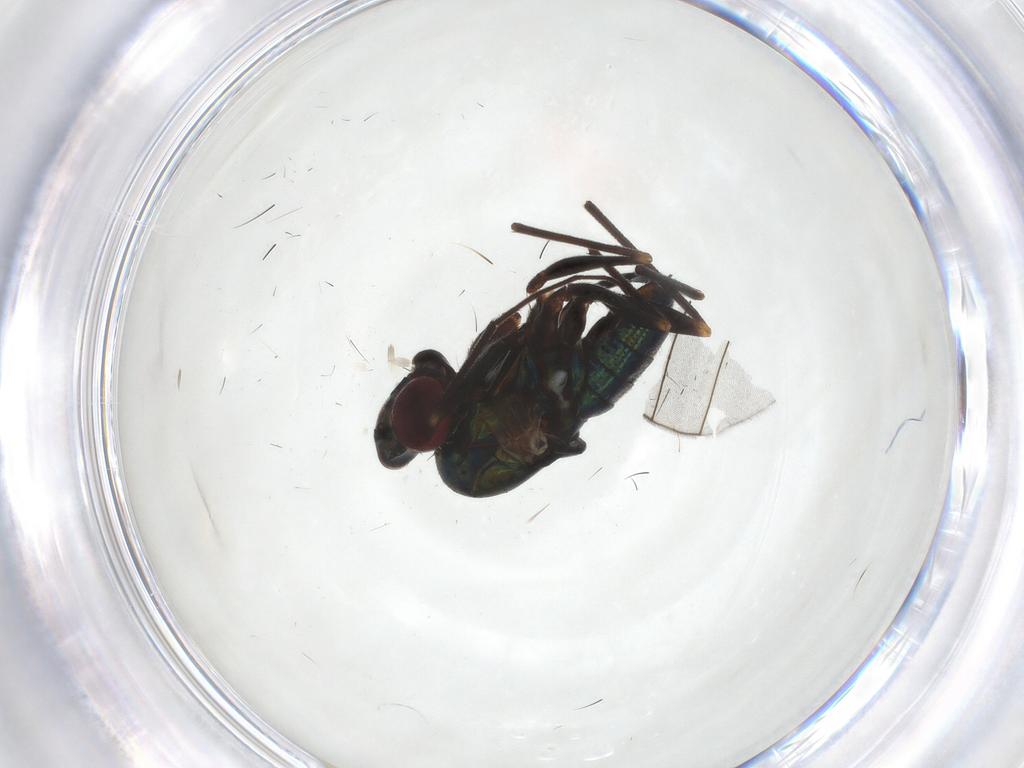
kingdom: Animalia
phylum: Arthropoda
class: Insecta
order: Diptera
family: Dolichopodidae
